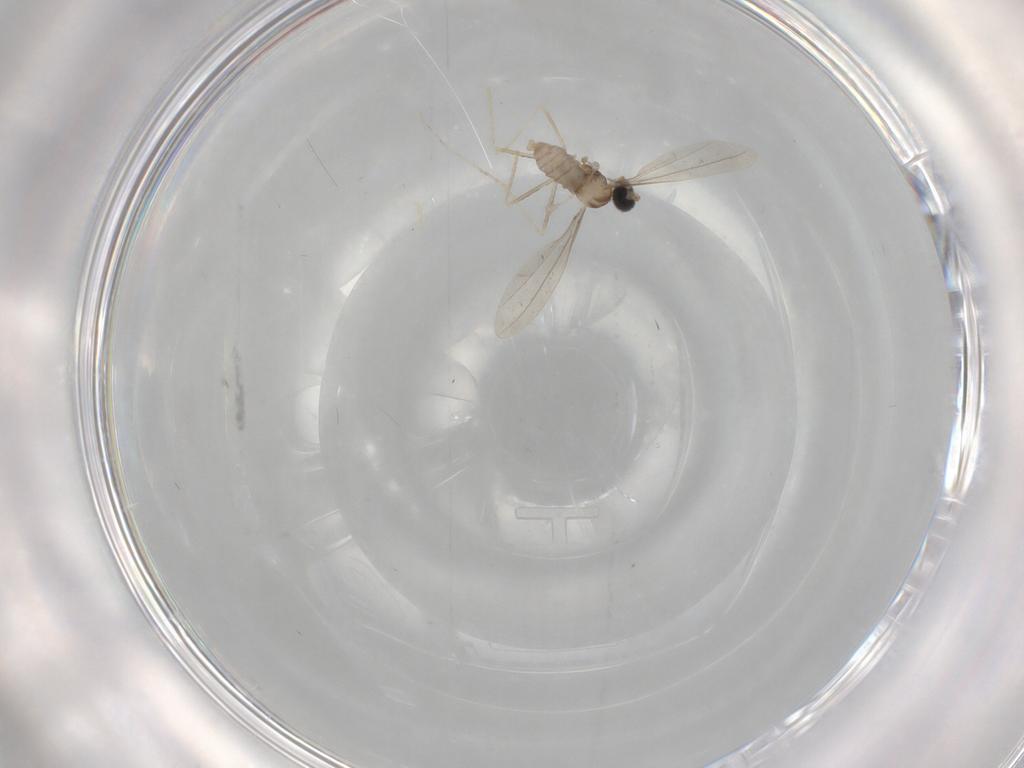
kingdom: Animalia
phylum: Arthropoda
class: Insecta
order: Diptera
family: Cecidomyiidae
